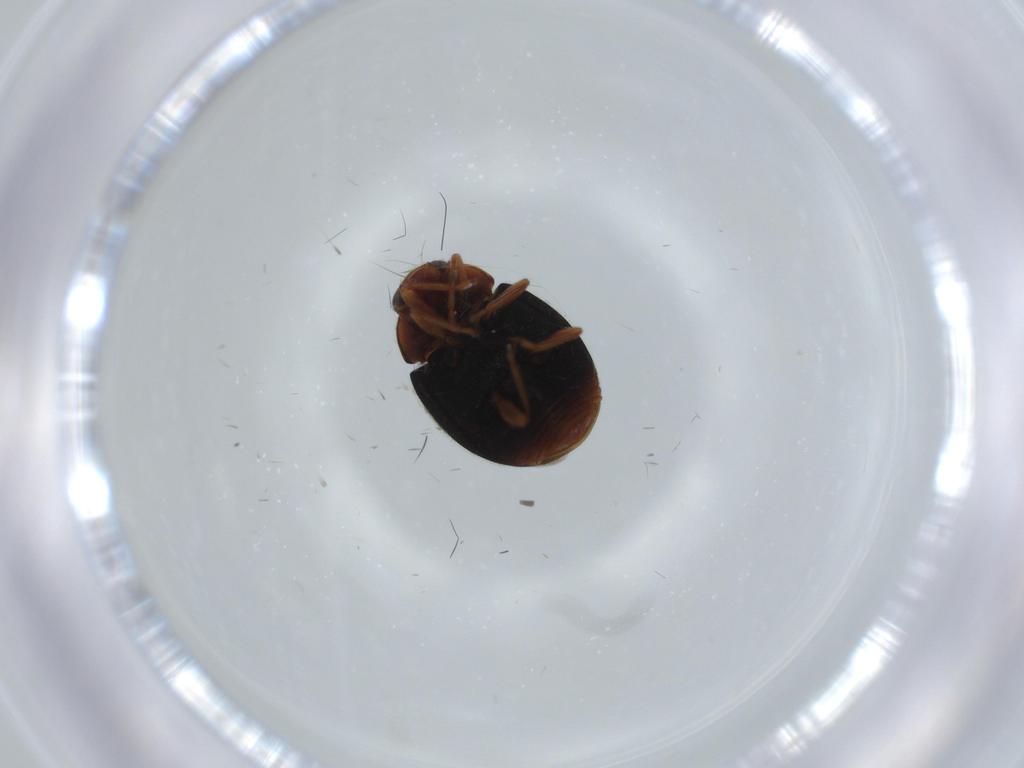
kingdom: Animalia
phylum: Arthropoda
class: Insecta
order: Coleoptera
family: Coccinellidae
